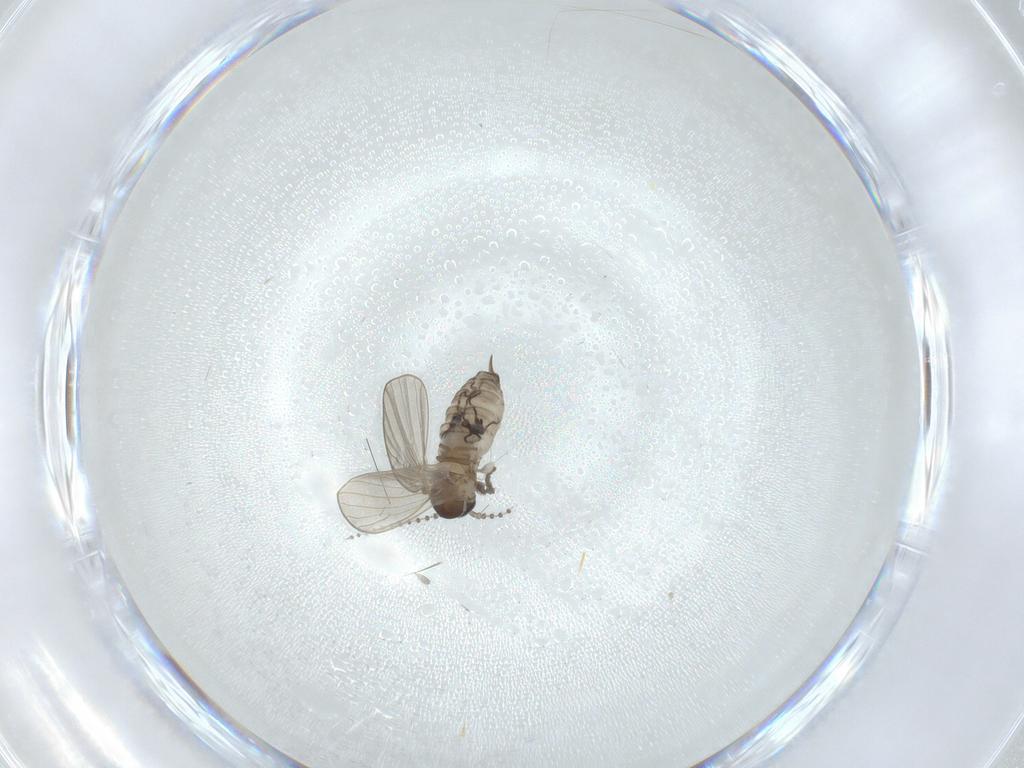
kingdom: Animalia
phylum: Arthropoda
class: Insecta
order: Diptera
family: Psychodidae
